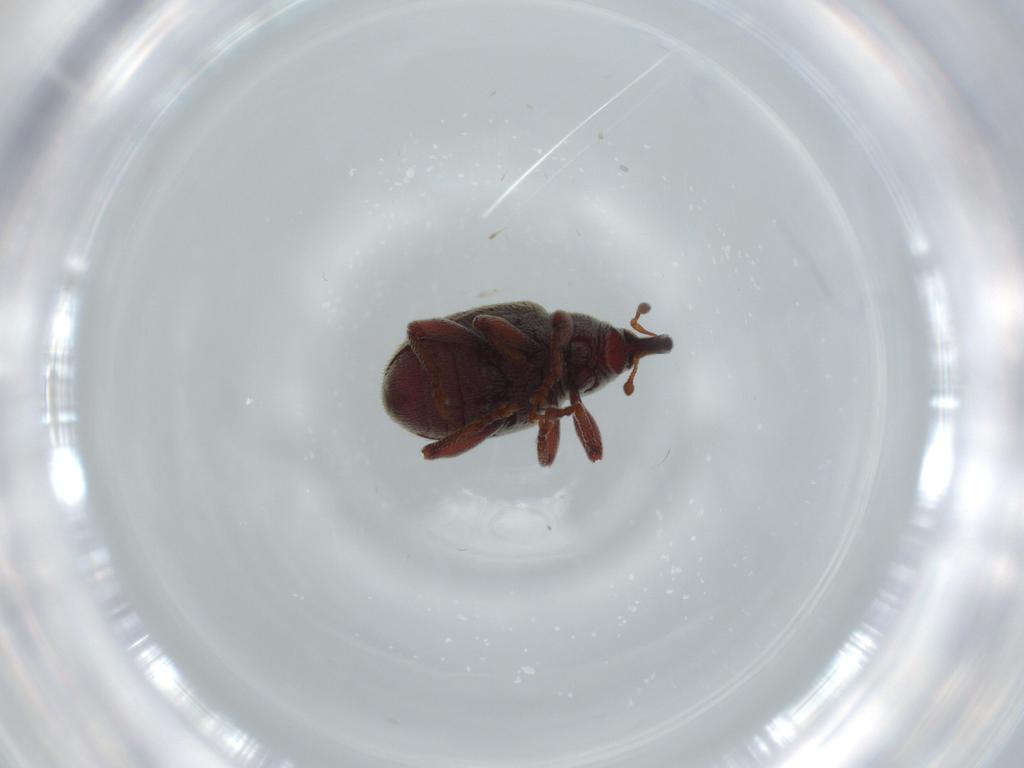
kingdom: Animalia
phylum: Arthropoda
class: Insecta
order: Coleoptera
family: Curculionidae
